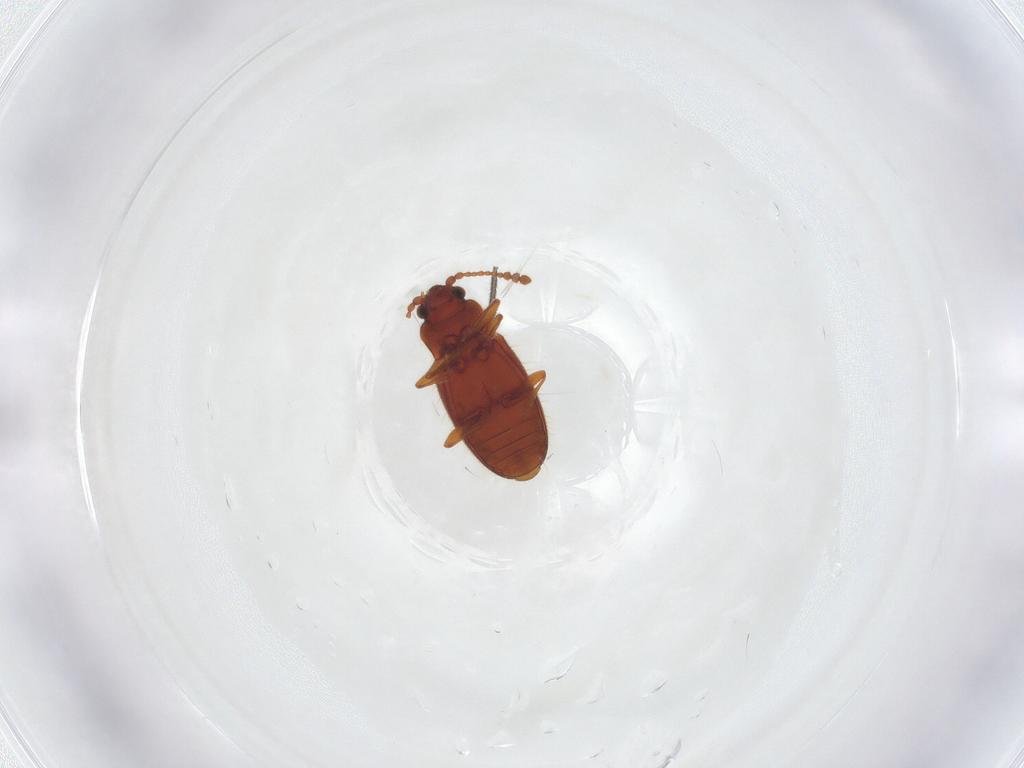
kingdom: Animalia
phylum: Arthropoda
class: Insecta
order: Coleoptera
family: Cryptophagidae
